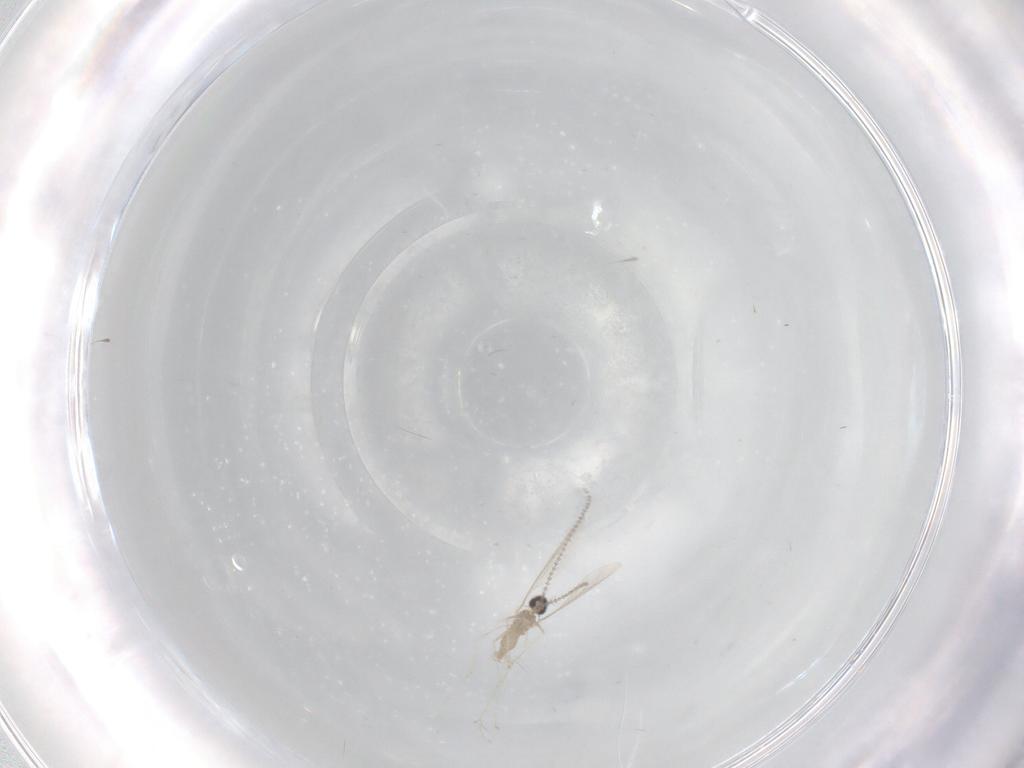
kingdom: Animalia
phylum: Arthropoda
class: Insecta
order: Diptera
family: Cecidomyiidae
